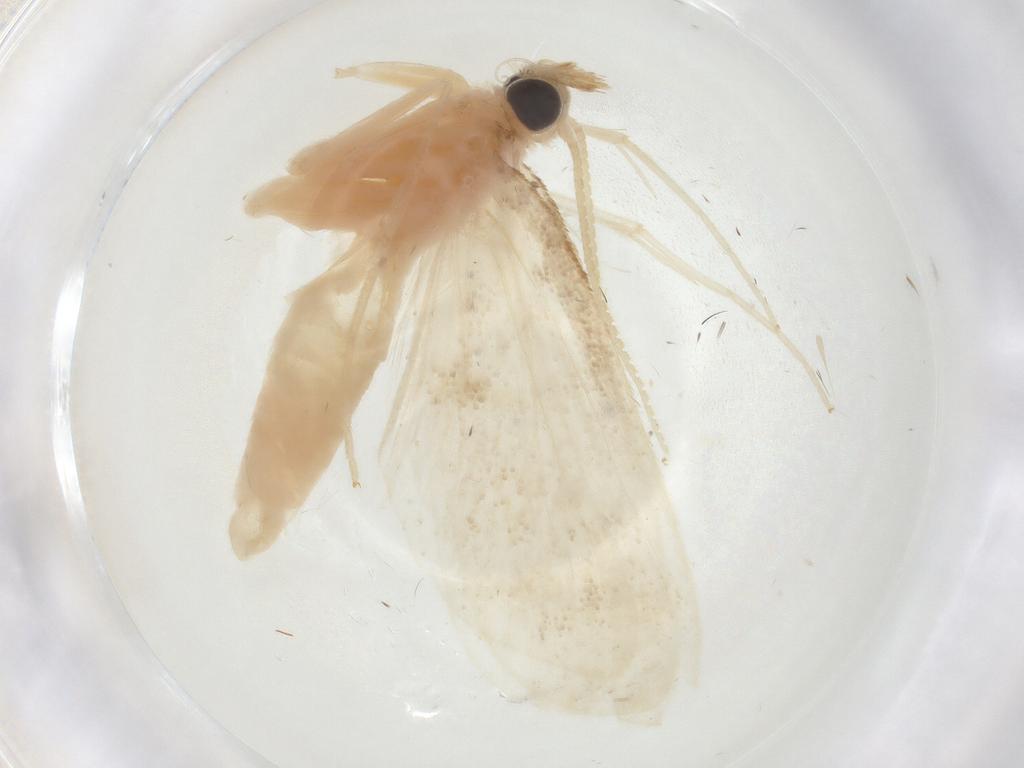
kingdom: Animalia
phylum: Arthropoda
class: Insecta
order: Lepidoptera
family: Crambidae
